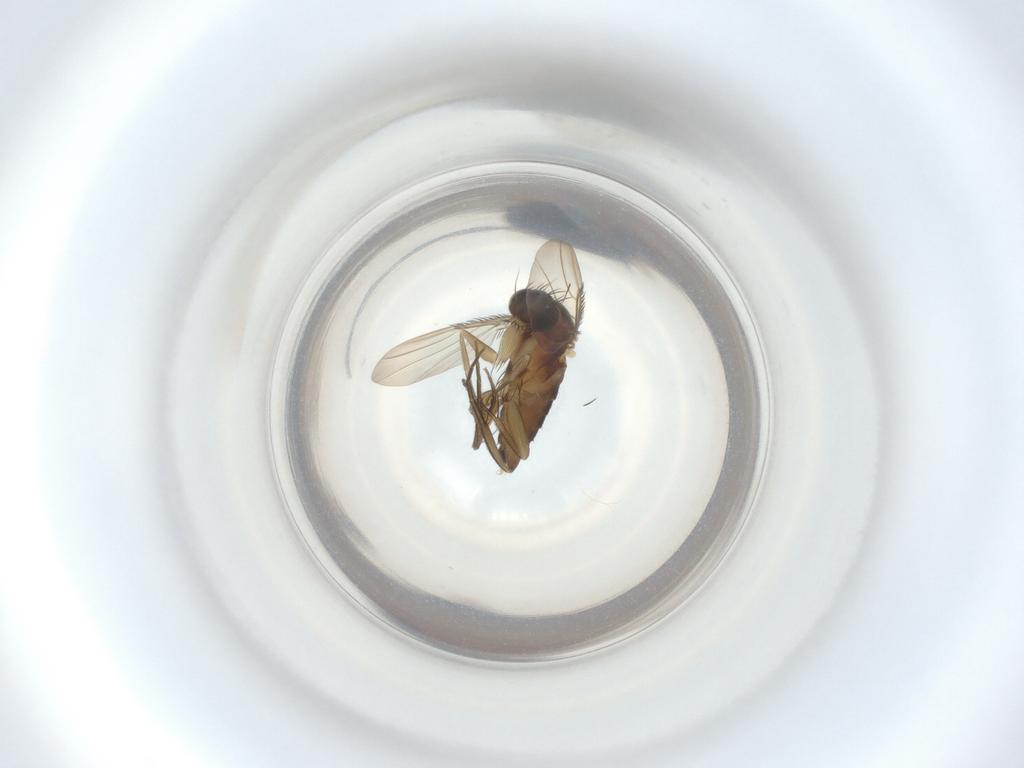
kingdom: Animalia
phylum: Arthropoda
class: Insecta
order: Diptera
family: Phoridae
